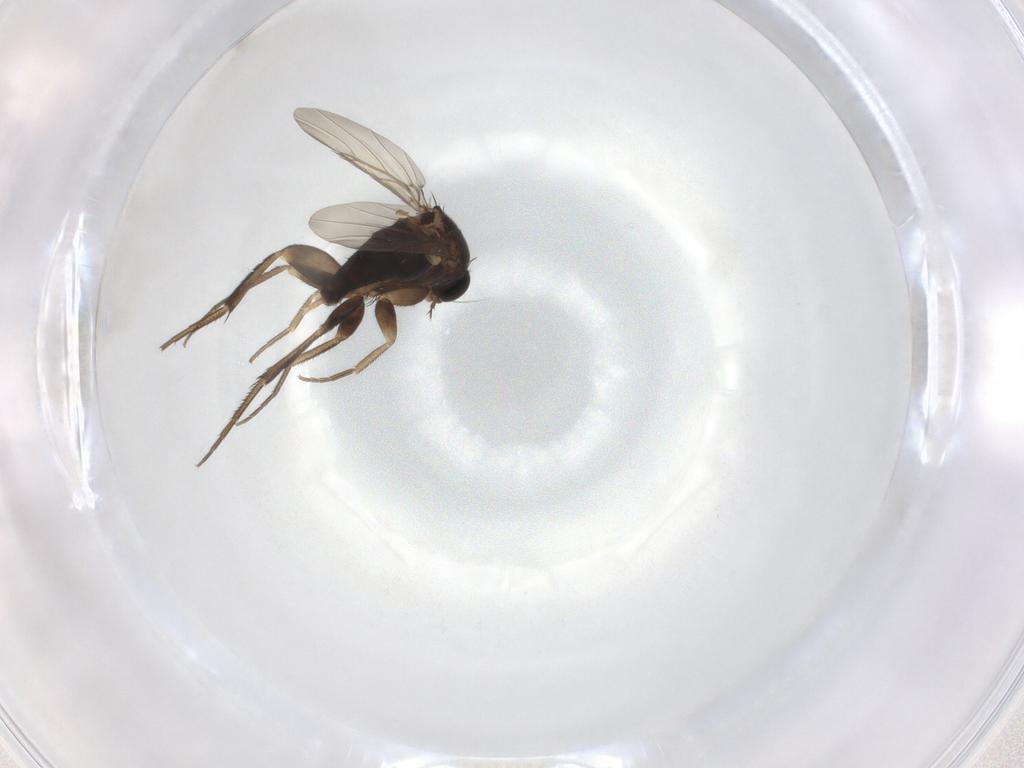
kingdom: Animalia
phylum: Arthropoda
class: Insecta
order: Diptera
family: Phoridae
